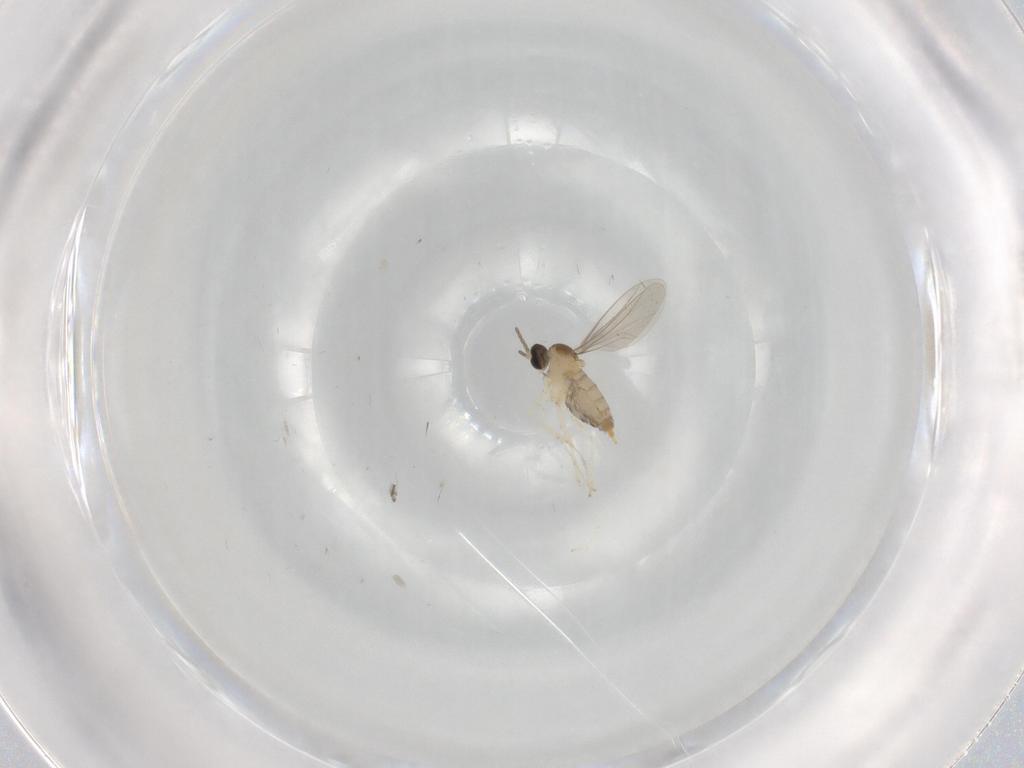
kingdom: Animalia
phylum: Arthropoda
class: Insecta
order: Diptera
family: Cecidomyiidae
